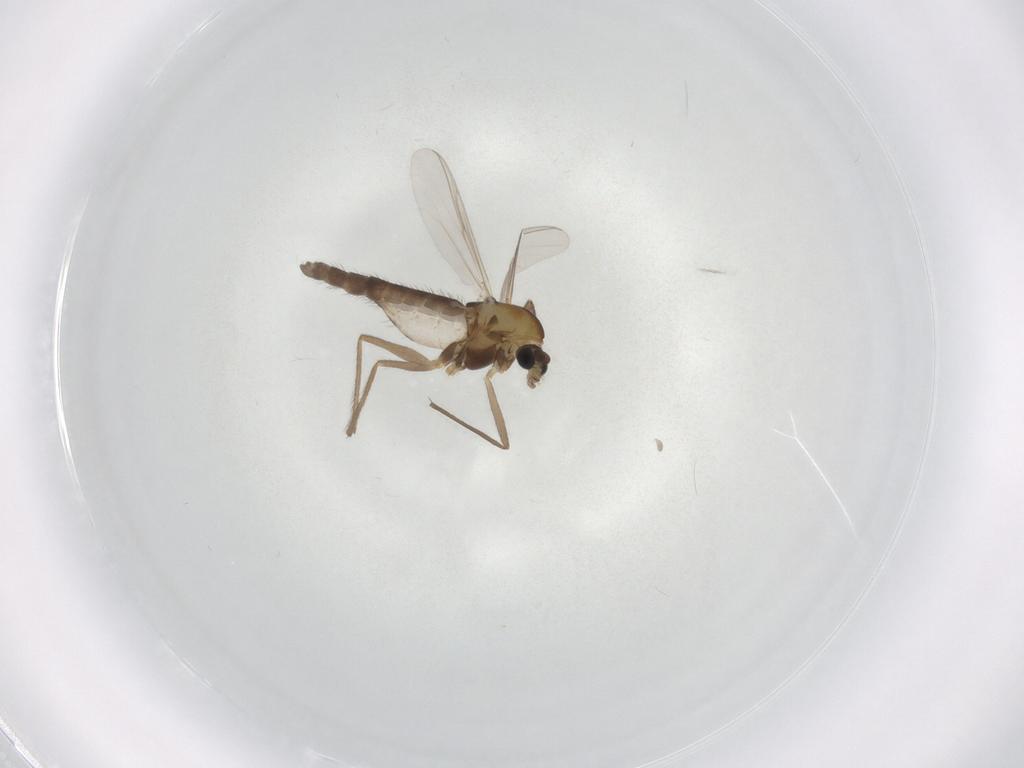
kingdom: Animalia
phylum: Arthropoda
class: Insecta
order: Diptera
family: Chironomidae
